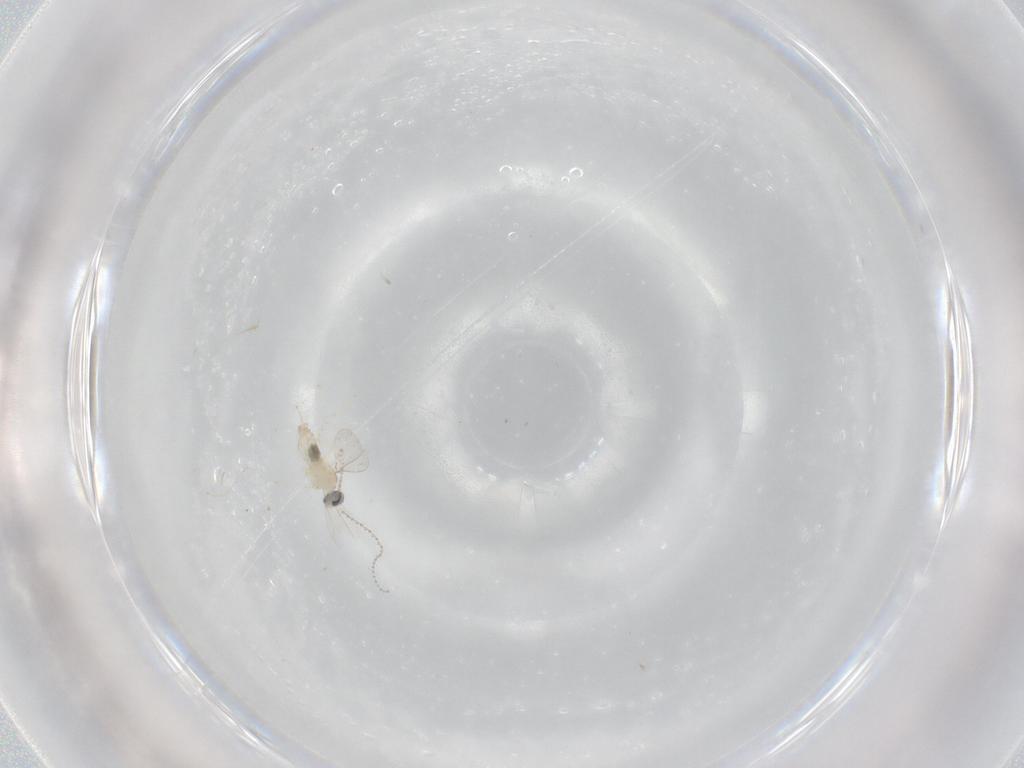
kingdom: Animalia
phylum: Arthropoda
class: Insecta
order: Diptera
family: Cecidomyiidae
